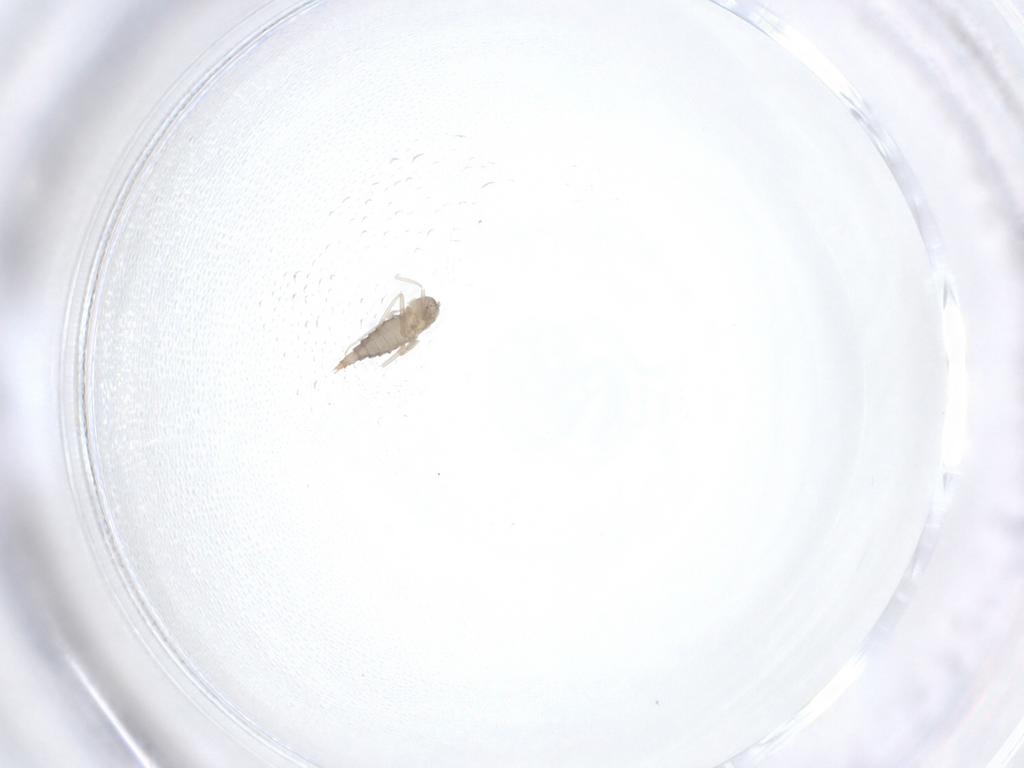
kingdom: Animalia
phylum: Arthropoda
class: Insecta
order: Diptera
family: Cecidomyiidae
